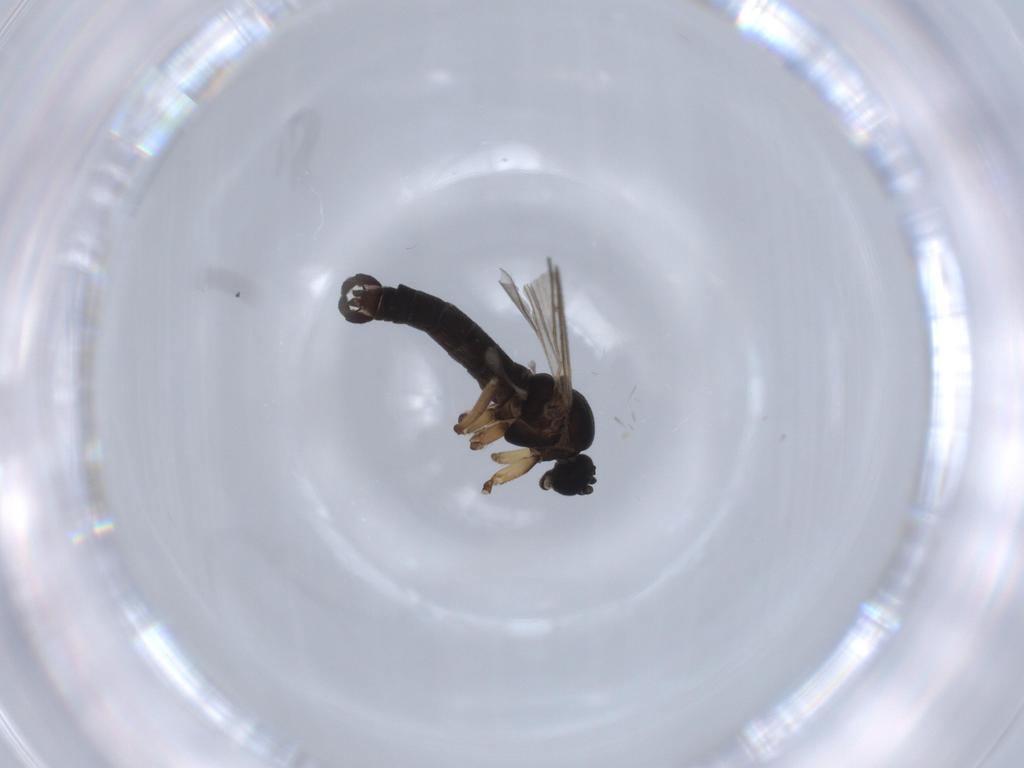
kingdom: Animalia
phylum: Arthropoda
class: Insecta
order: Diptera
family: Sciaridae
